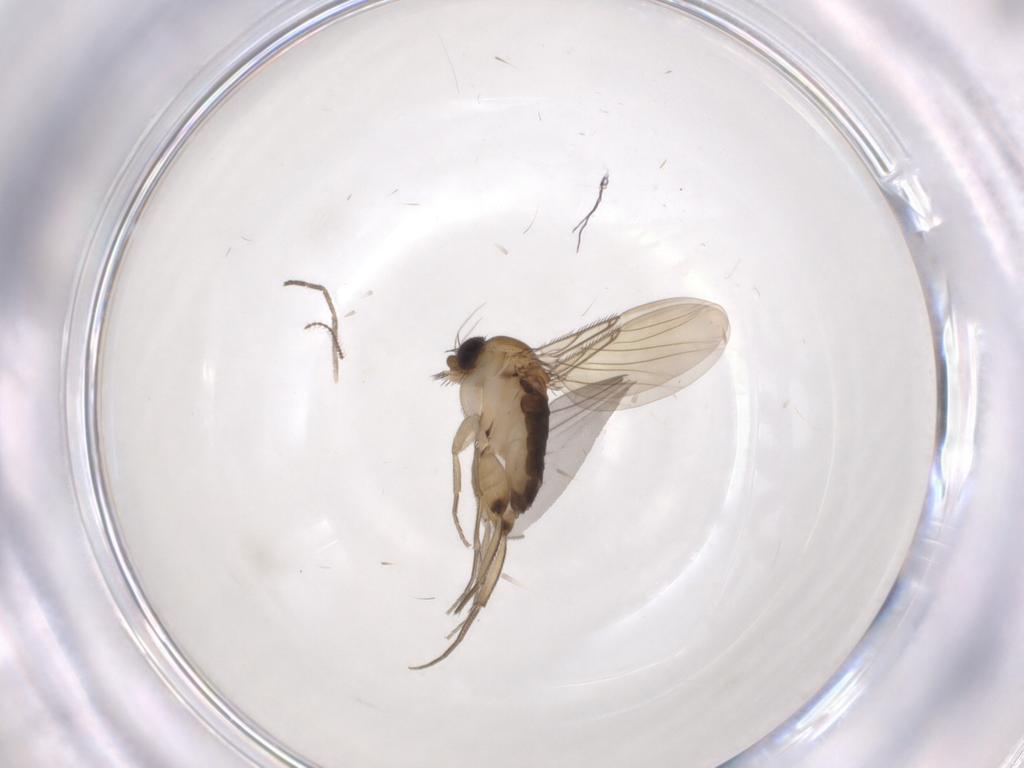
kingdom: Animalia
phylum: Arthropoda
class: Insecta
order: Diptera
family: Phoridae
